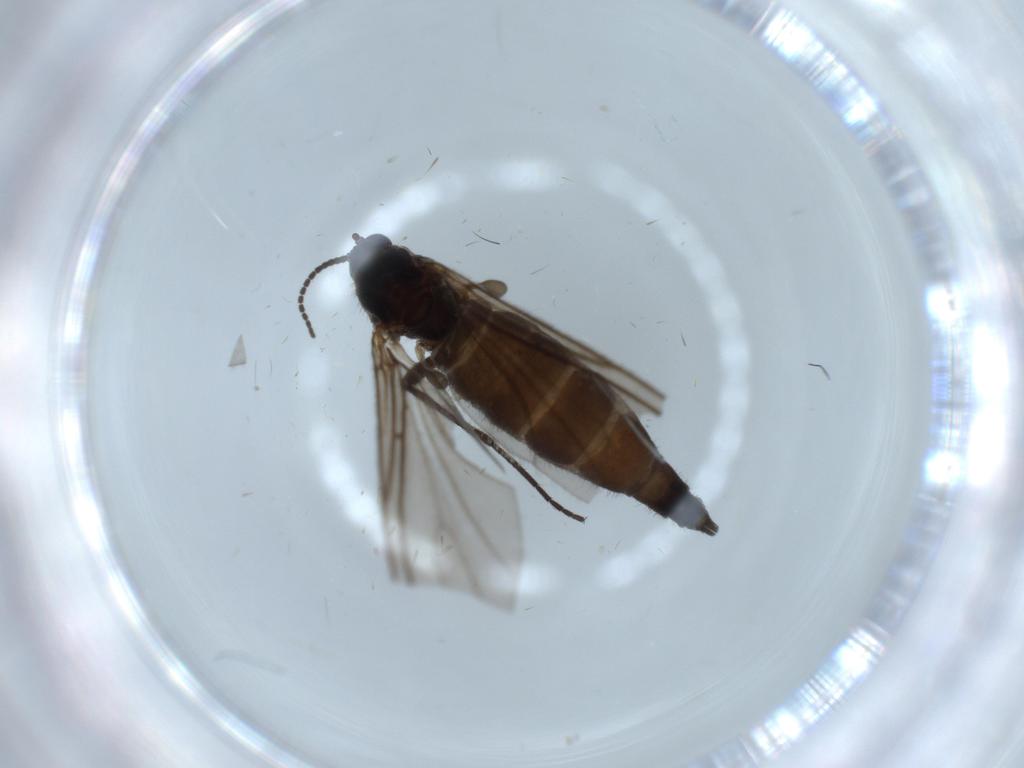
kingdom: Animalia
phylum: Arthropoda
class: Insecta
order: Diptera
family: Sciaridae
